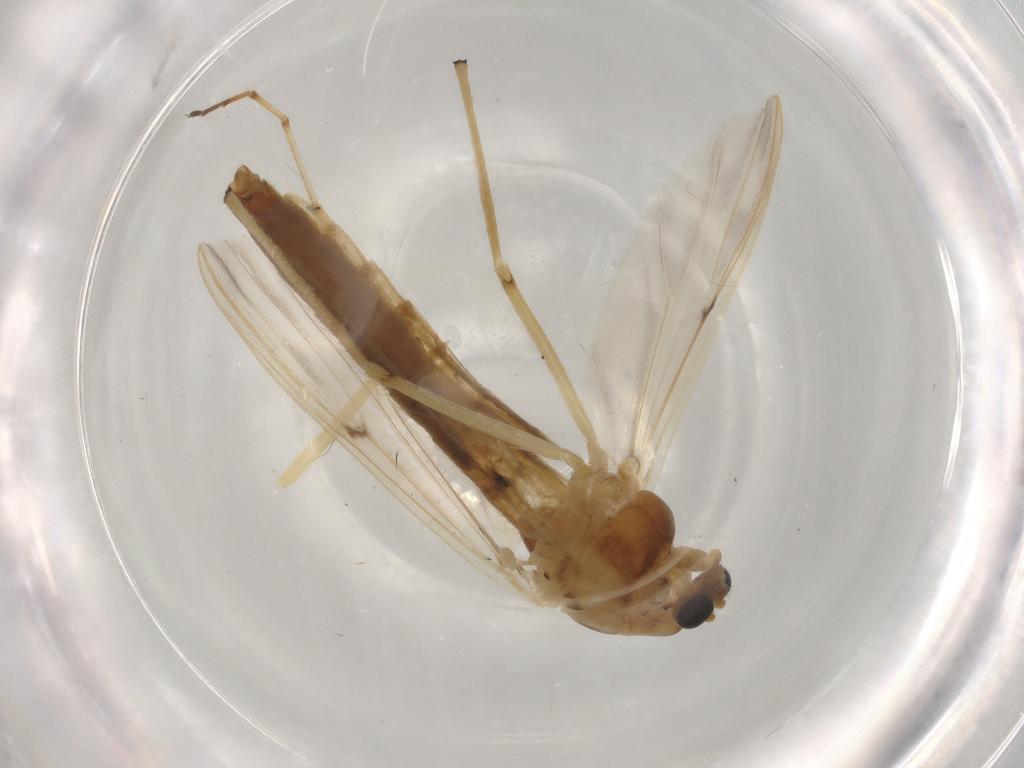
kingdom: Animalia
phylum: Arthropoda
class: Insecta
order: Diptera
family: Chironomidae
